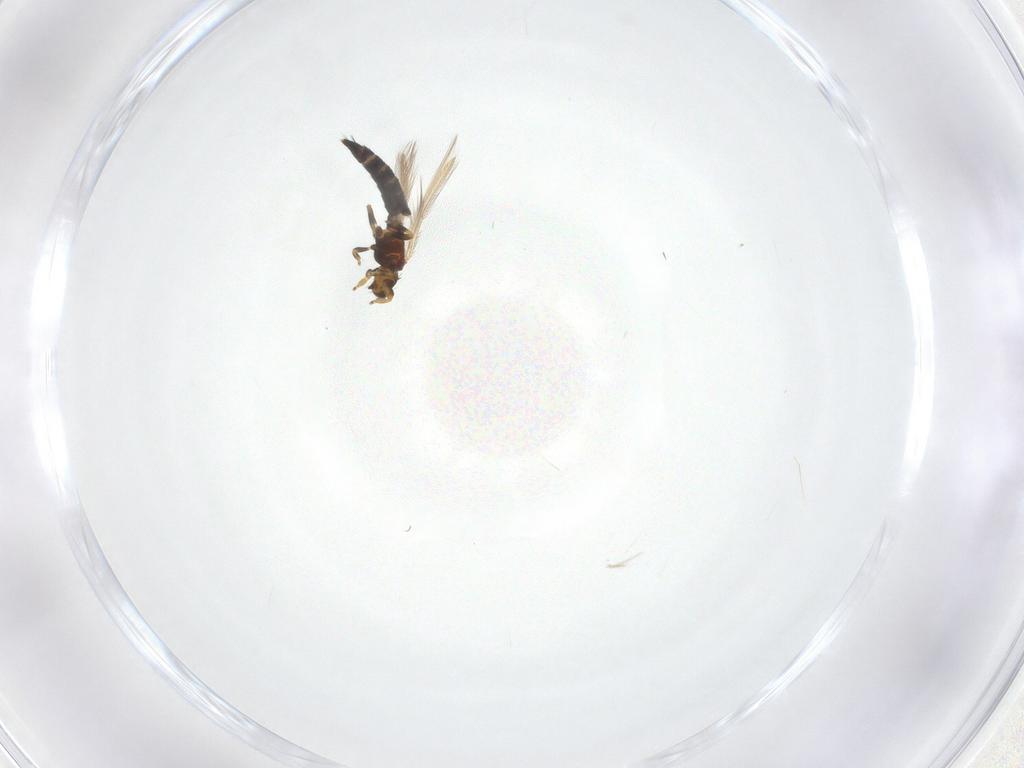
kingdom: Animalia
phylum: Arthropoda
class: Insecta
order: Thysanoptera
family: Thripidae
